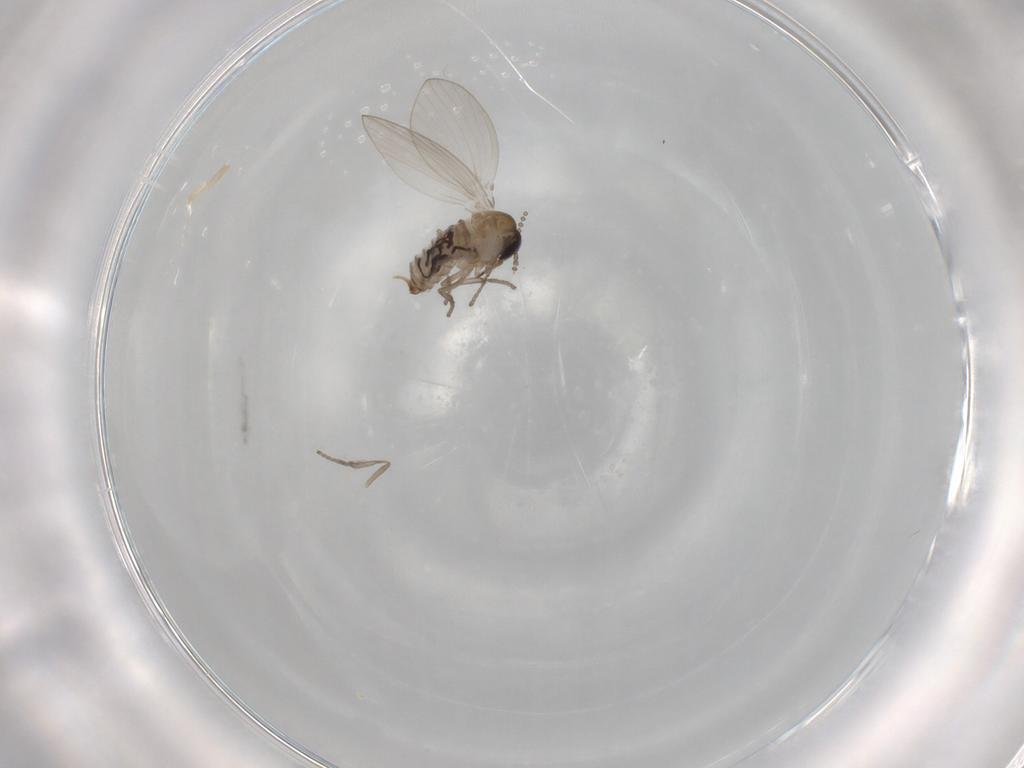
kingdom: Animalia
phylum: Arthropoda
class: Insecta
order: Diptera
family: Psychodidae
